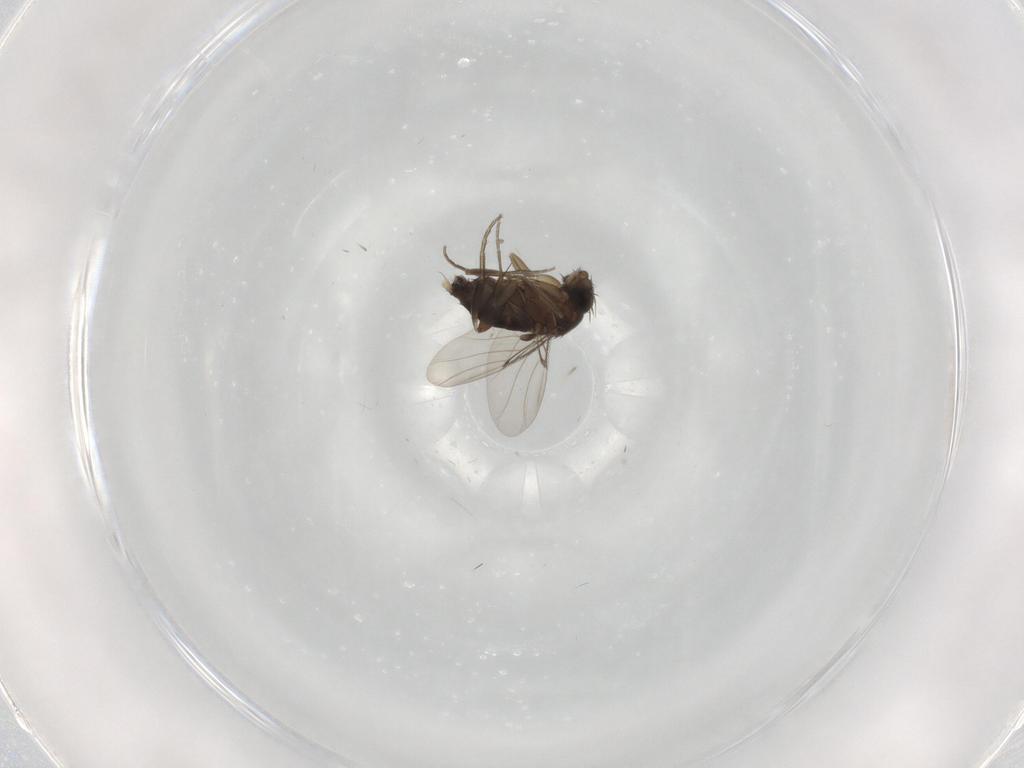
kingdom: Animalia
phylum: Arthropoda
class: Insecta
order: Diptera
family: Phoridae
